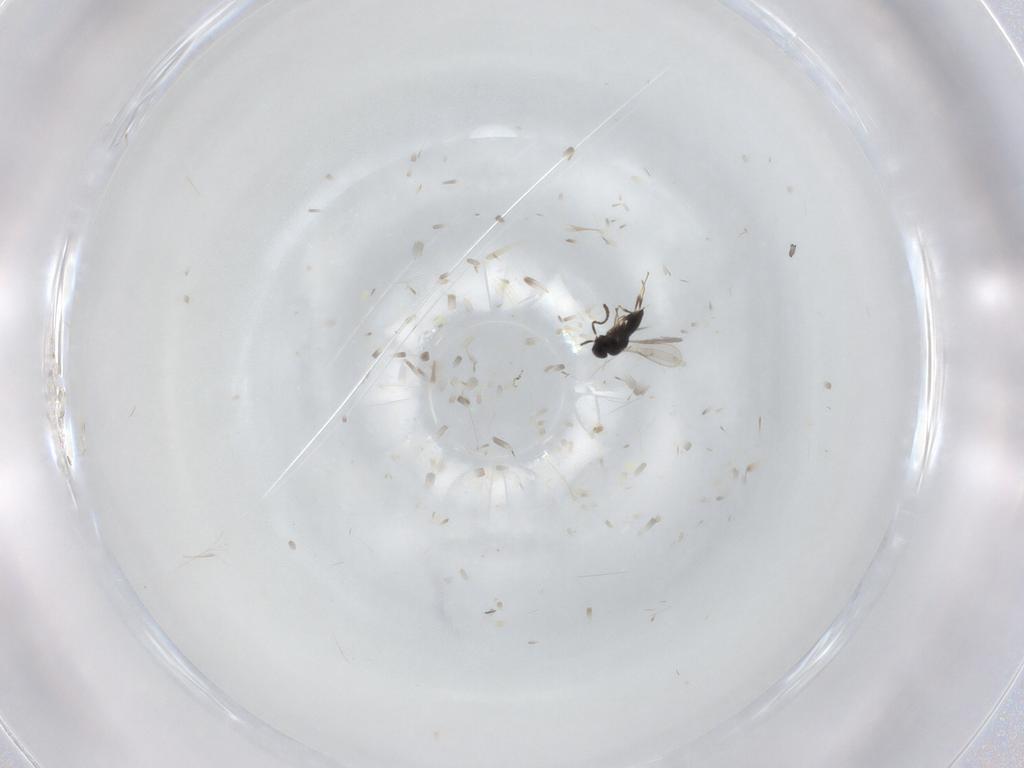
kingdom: Animalia
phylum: Arthropoda
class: Insecta
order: Hymenoptera
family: Scelionidae
